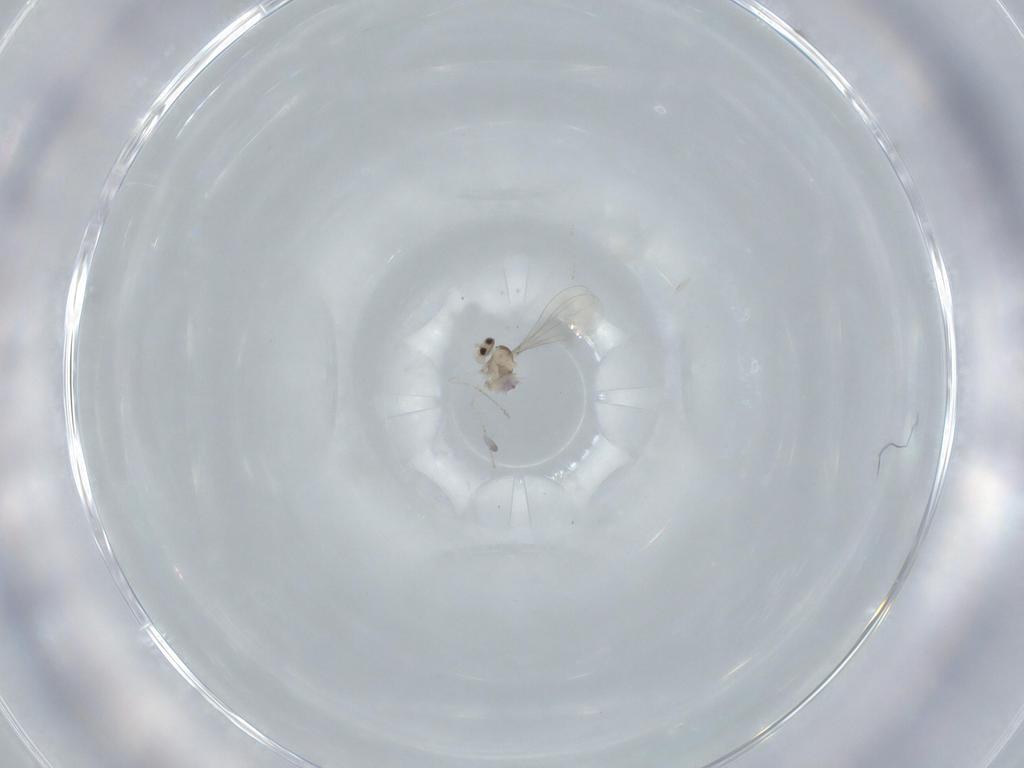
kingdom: Animalia
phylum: Arthropoda
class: Insecta
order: Diptera
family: Cecidomyiidae
